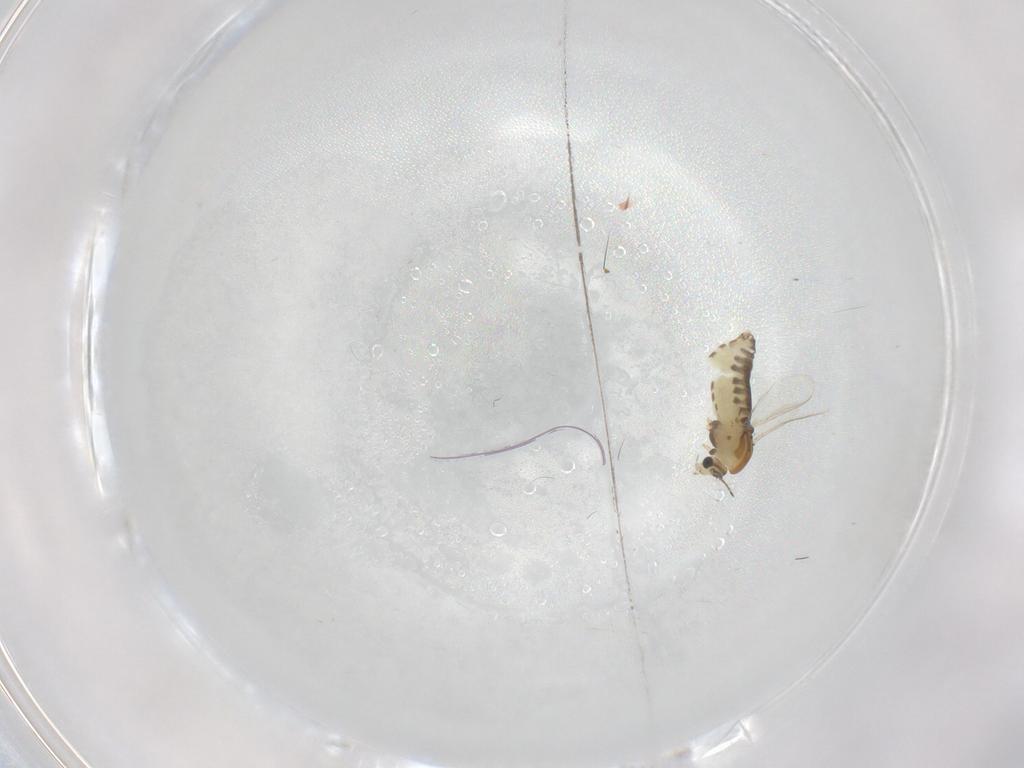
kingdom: Animalia
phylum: Arthropoda
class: Insecta
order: Diptera
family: Chironomidae
